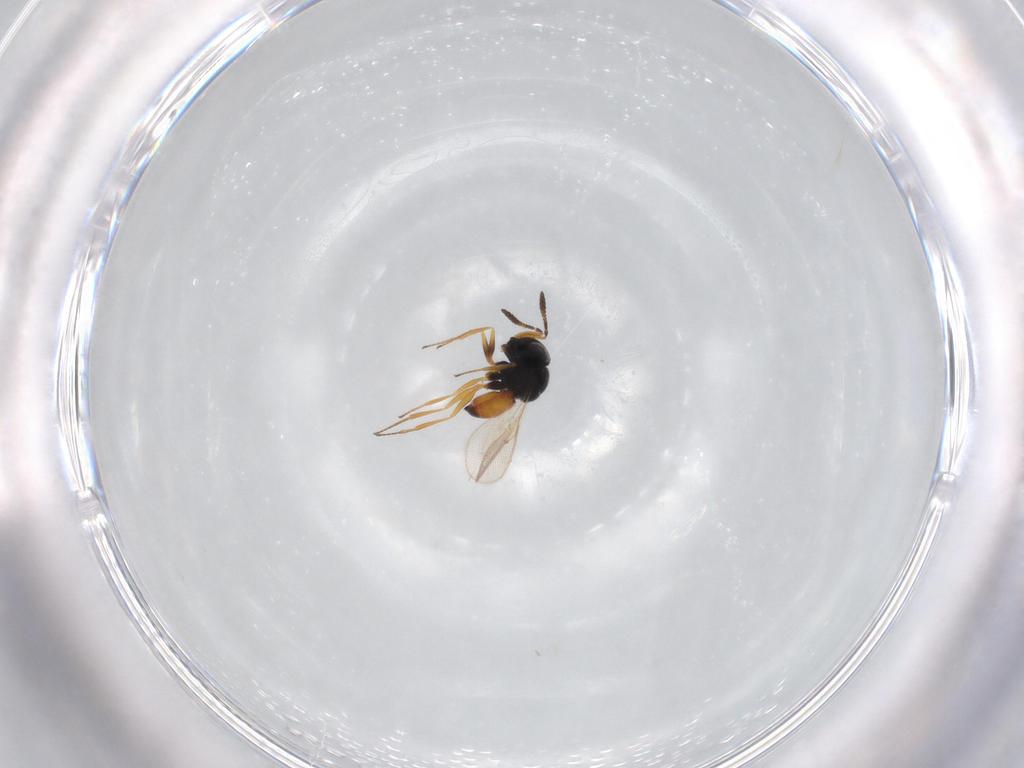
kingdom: Animalia
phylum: Arthropoda
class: Insecta
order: Hymenoptera
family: Scelionidae
